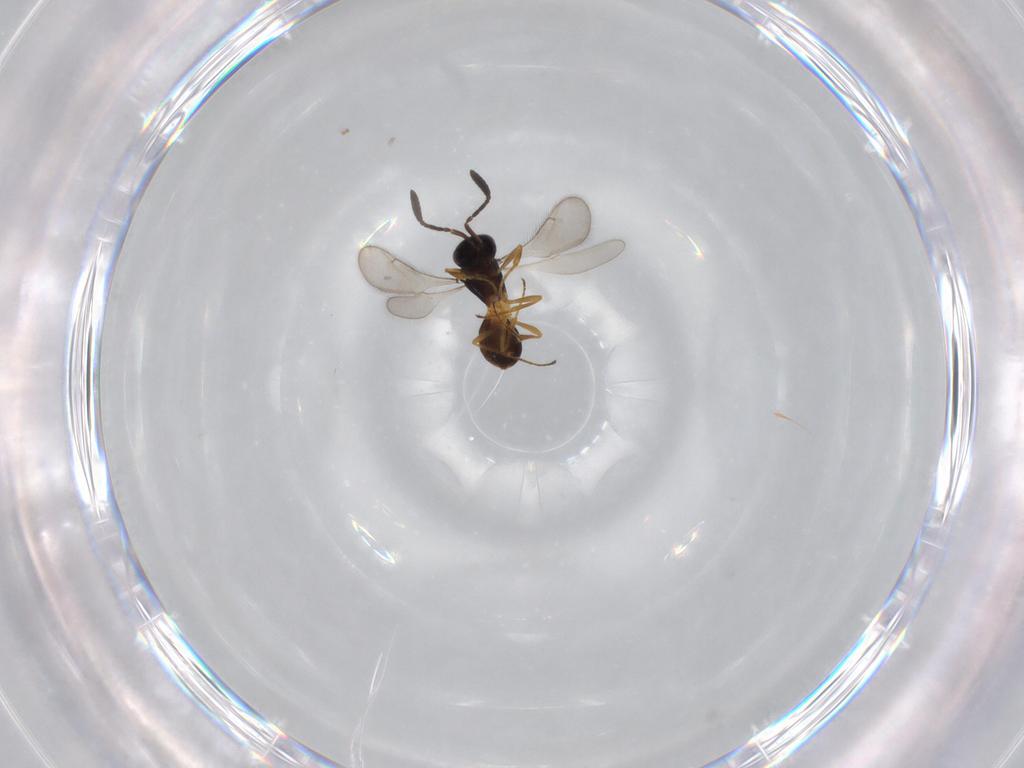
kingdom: Animalia
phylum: Arthropoda
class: Insecta
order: Hymenoptera
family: Scelionidae
